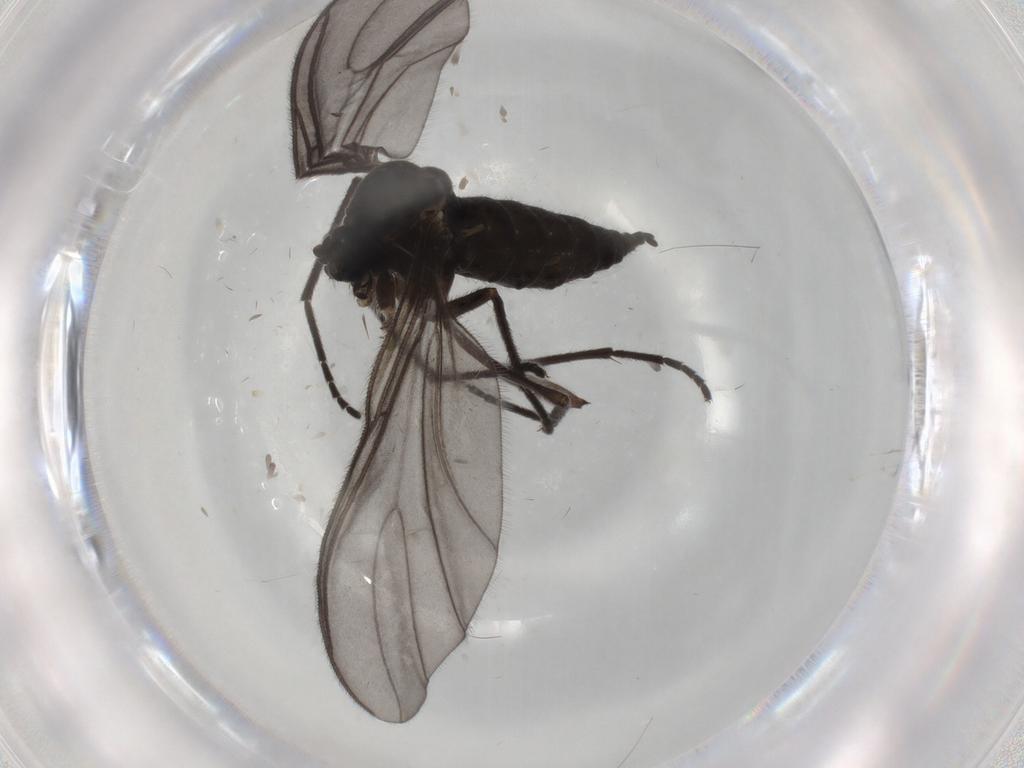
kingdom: Animalia
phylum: Arthropoda
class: Insecta
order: Diptera
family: Sciaridae
